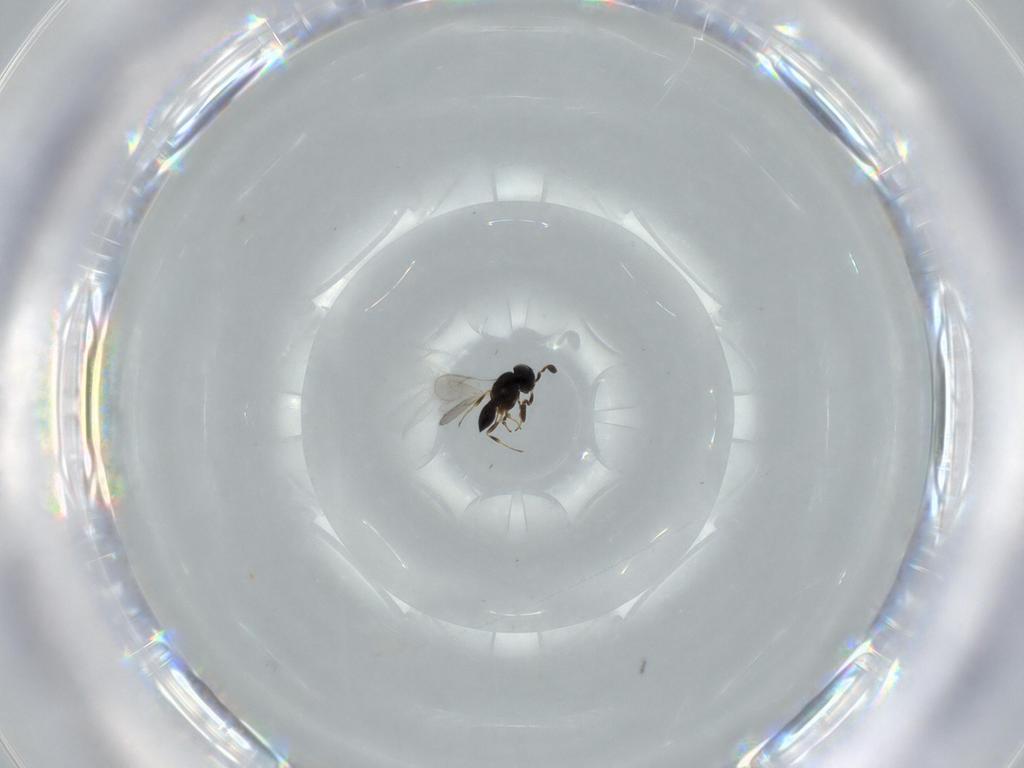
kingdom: Animalia
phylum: Arthropoda
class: Insecta
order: Hymenoptera
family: Scelionidae
